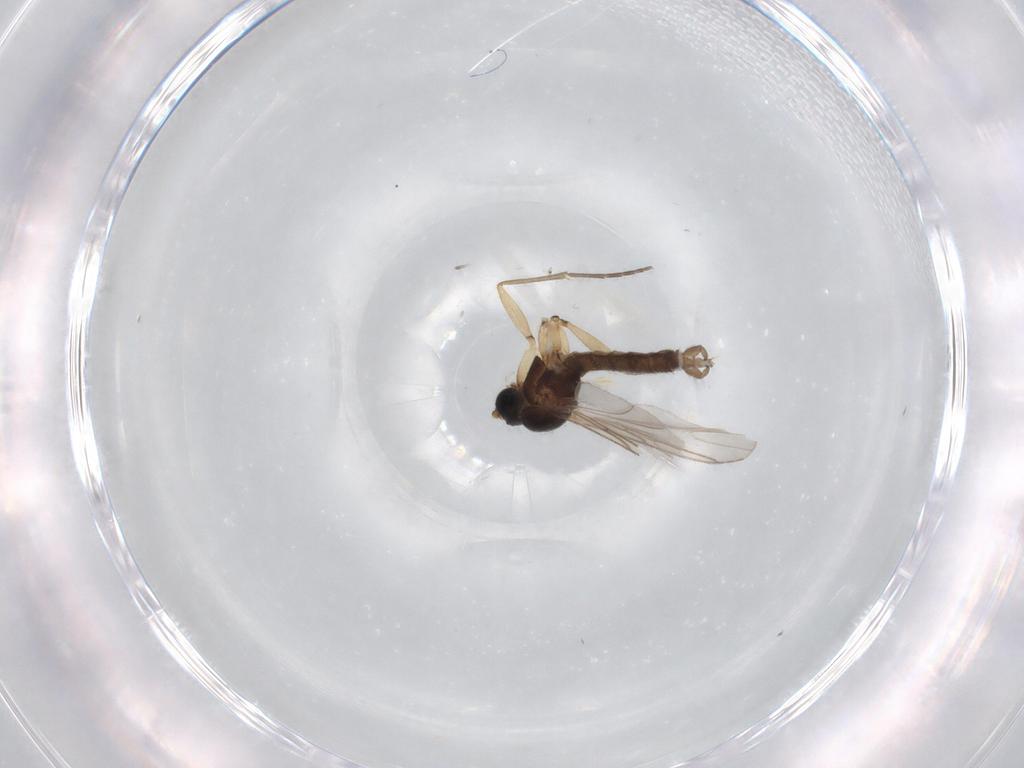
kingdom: Animalia
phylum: Arthropoda
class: Insecta
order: Diptera
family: Sciaridae
